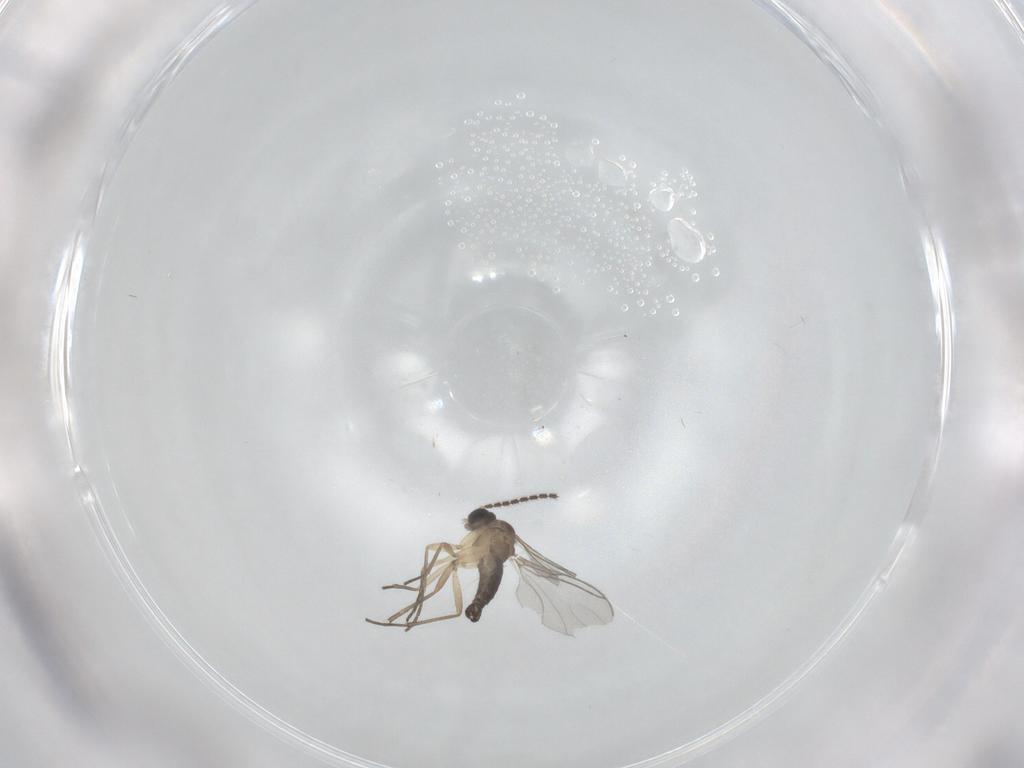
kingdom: Animalia
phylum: Arthropoda
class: Insecta
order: Diptera
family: Sciaridae
